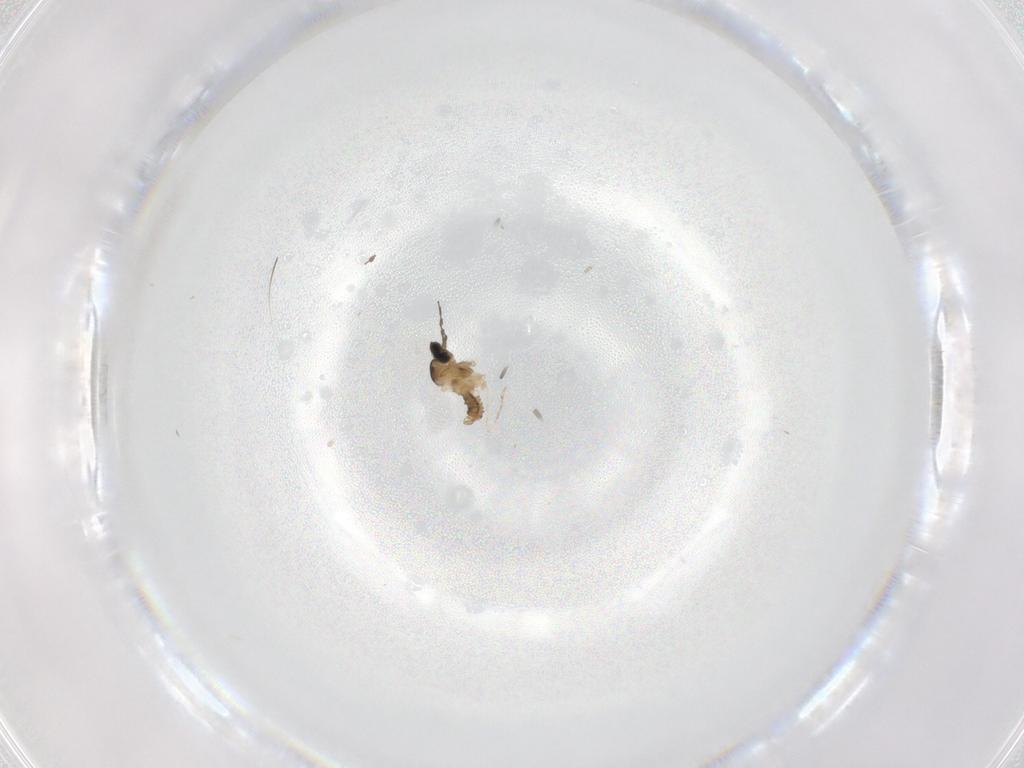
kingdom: Animalia
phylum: Arthropoda
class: Insecta
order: Diptera
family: Cecidomyiidae
